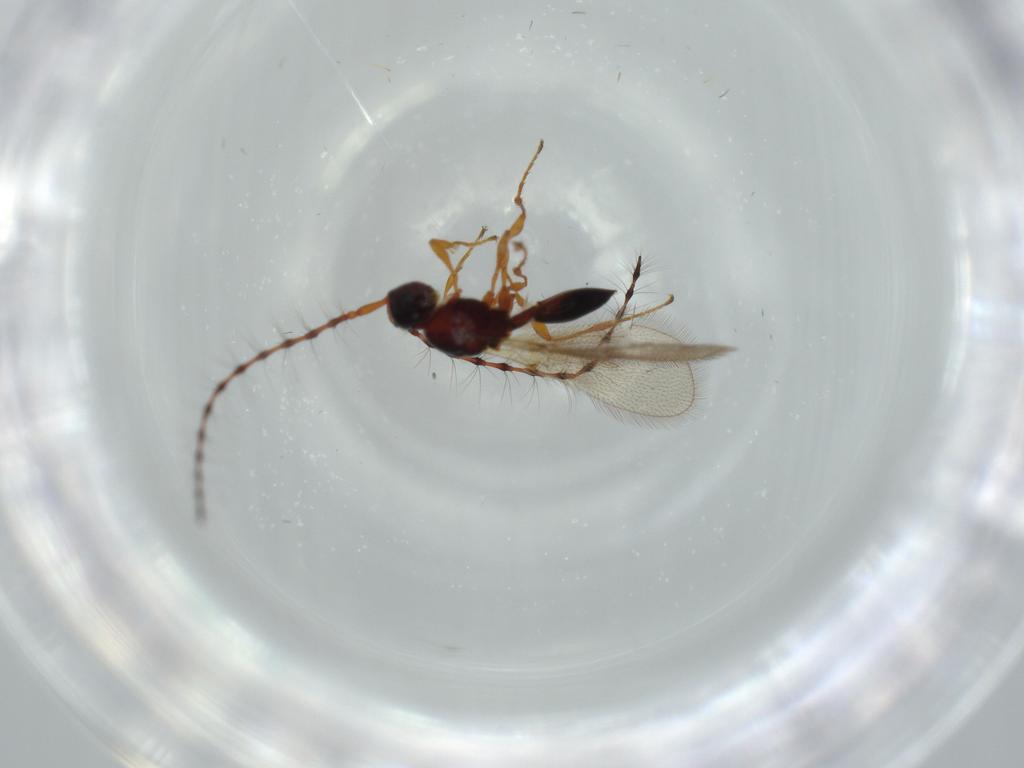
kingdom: Animalia
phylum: Arthropoda
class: Insecta
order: Hymenoptera
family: Diapriidae
